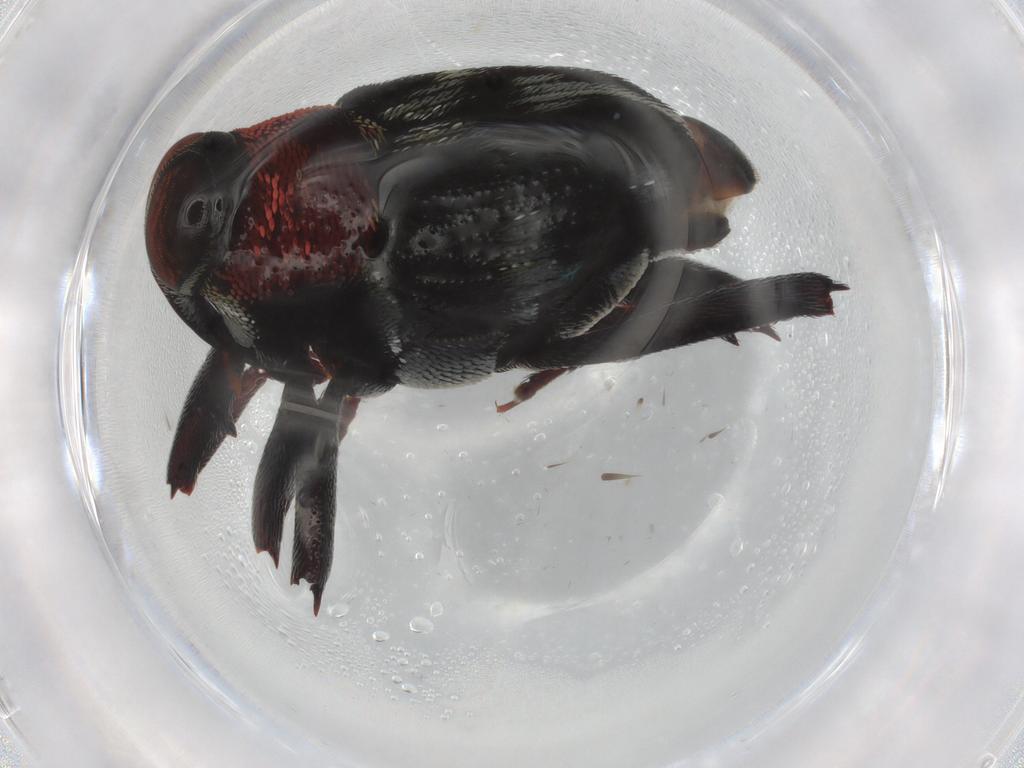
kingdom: Animalia
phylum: Arthropoda
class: Insecta
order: Coleoptera
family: Curculionidae
